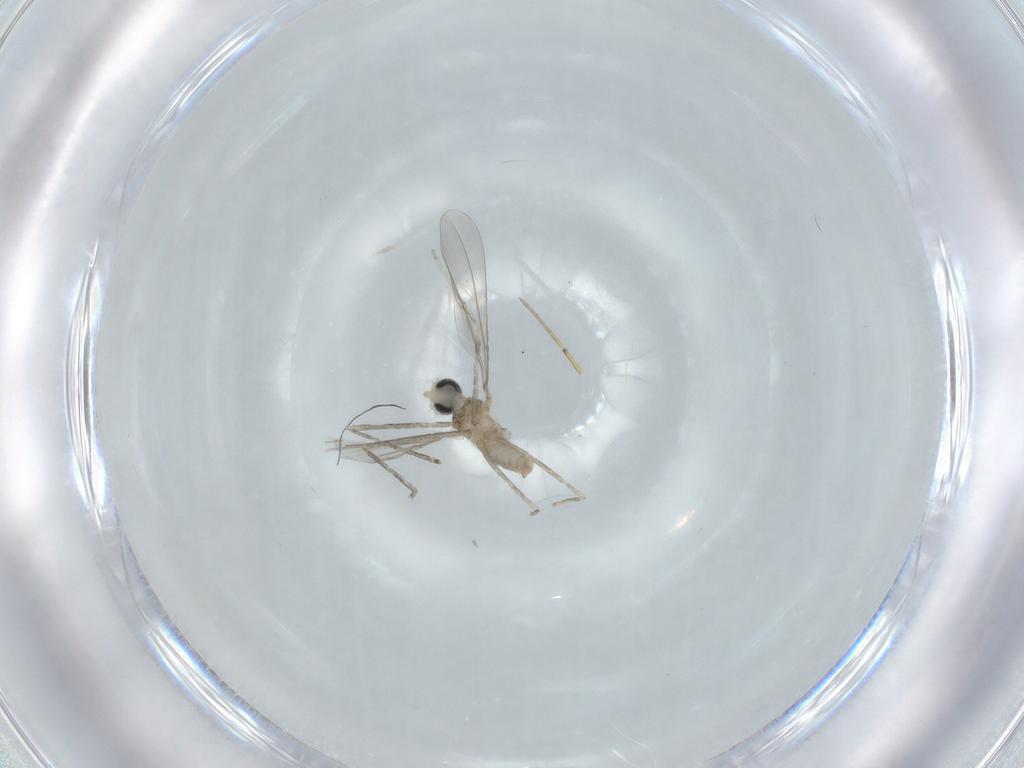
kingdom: Animalia
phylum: Arthropoda
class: Insecta
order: Diptera
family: Cecidomyiidae
